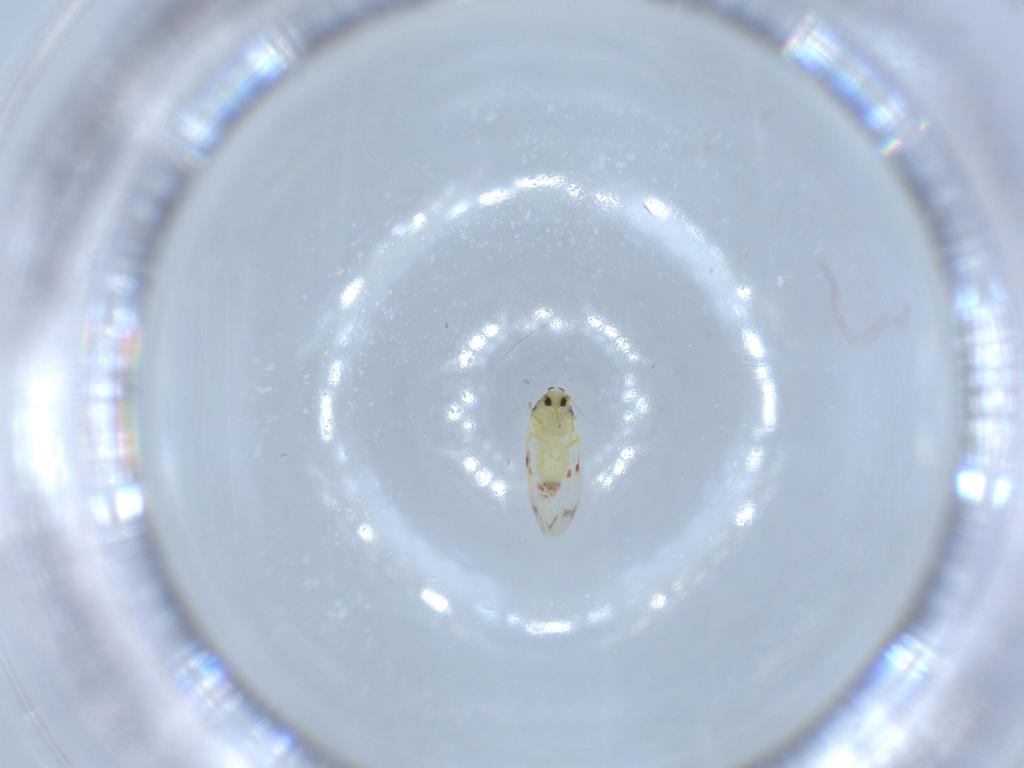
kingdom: Animalia
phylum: Arthropoda
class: Insecta
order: Hemiptera
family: Aleyrodidae
